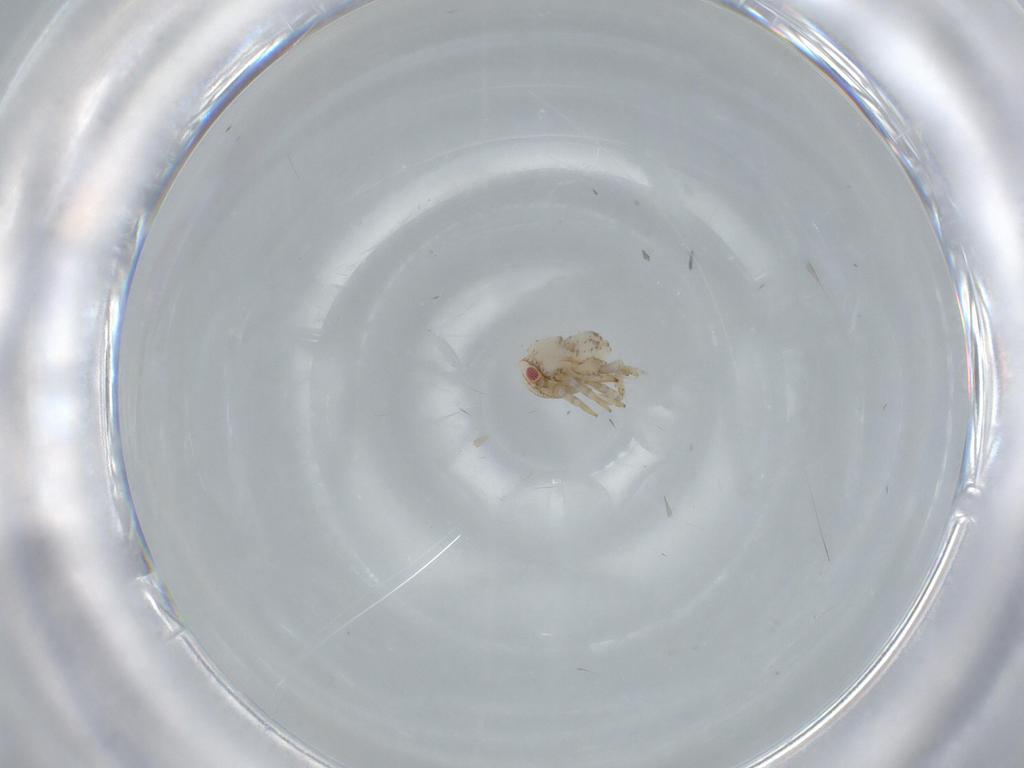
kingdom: Animalia
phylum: Arthropoda
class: Insecta
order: Hemiptera
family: Acanaloniidae
